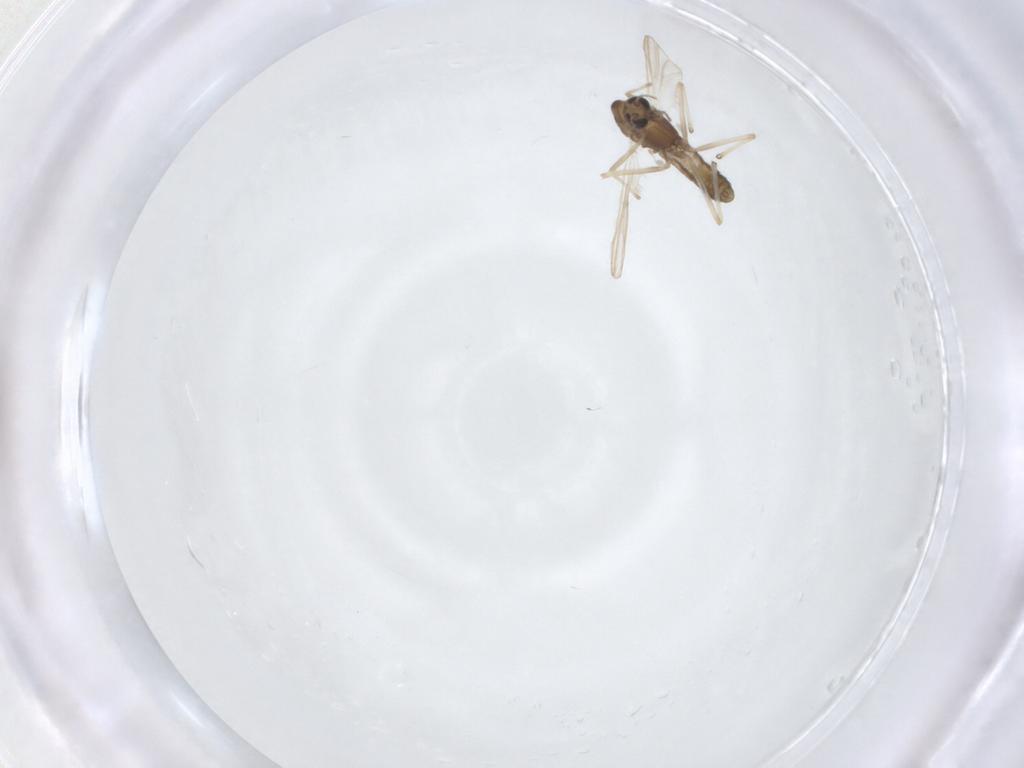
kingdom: Animalia
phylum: Arthropoda
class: Insecta
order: Diptera
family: Chironomidae
